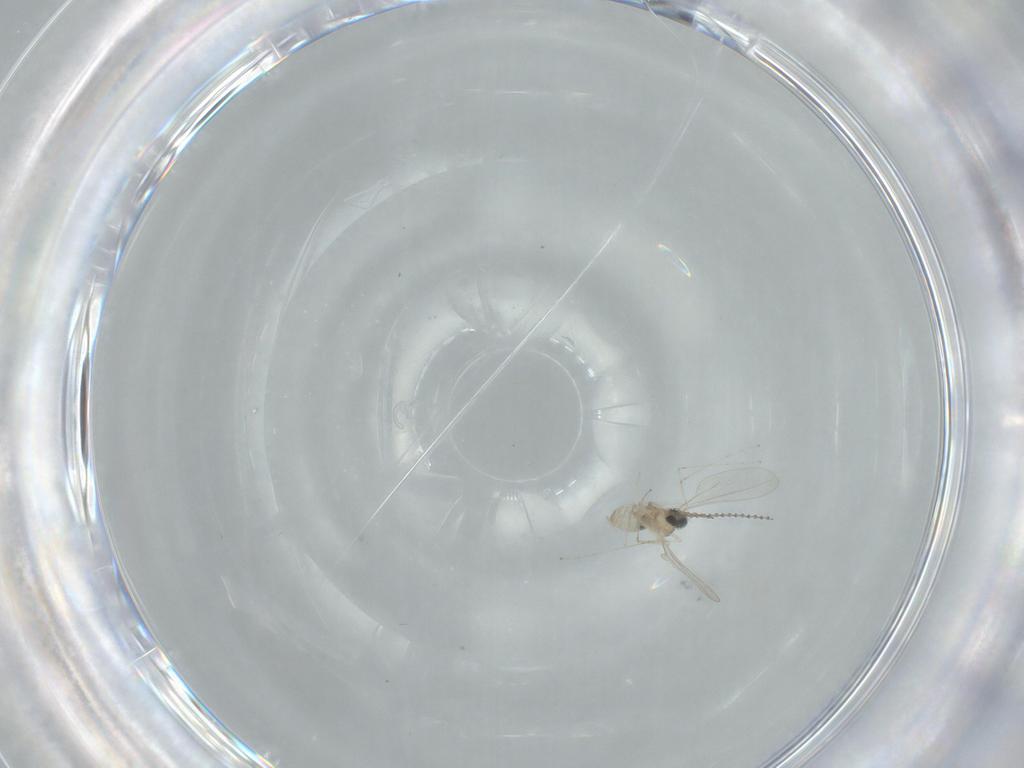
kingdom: Animalia
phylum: Arthropoda
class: Insecta
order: Diptera
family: Cecidomyiidae
